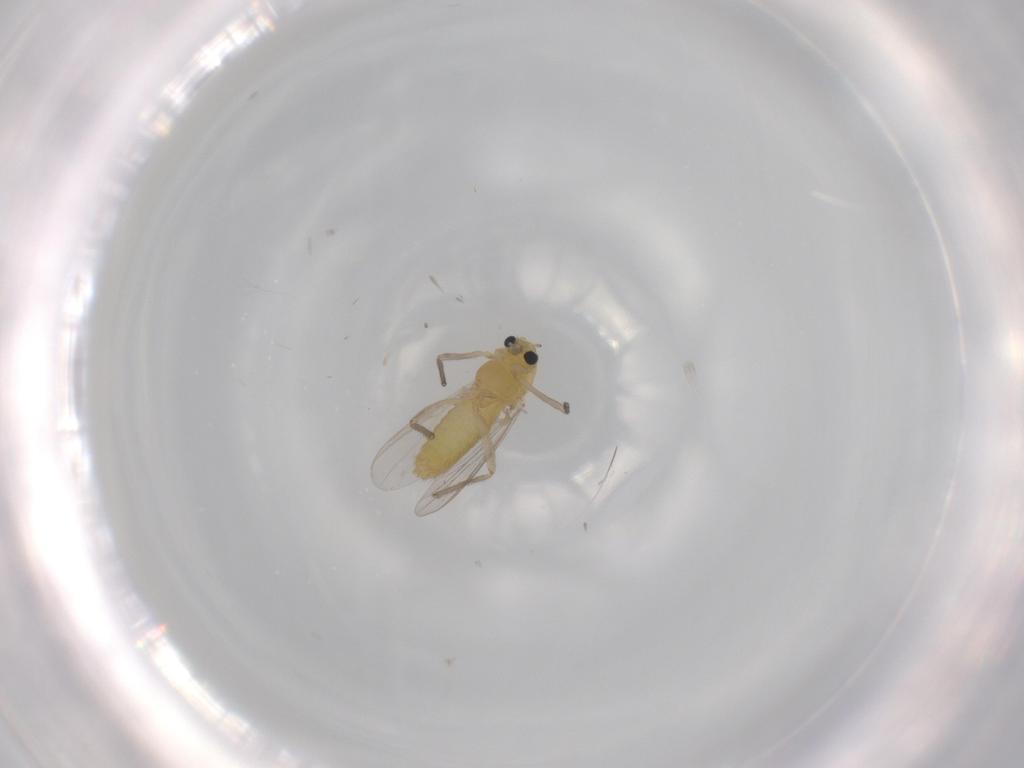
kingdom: Animalia
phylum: Arthropoda
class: Insecta
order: Diptera
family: Chironomidae
